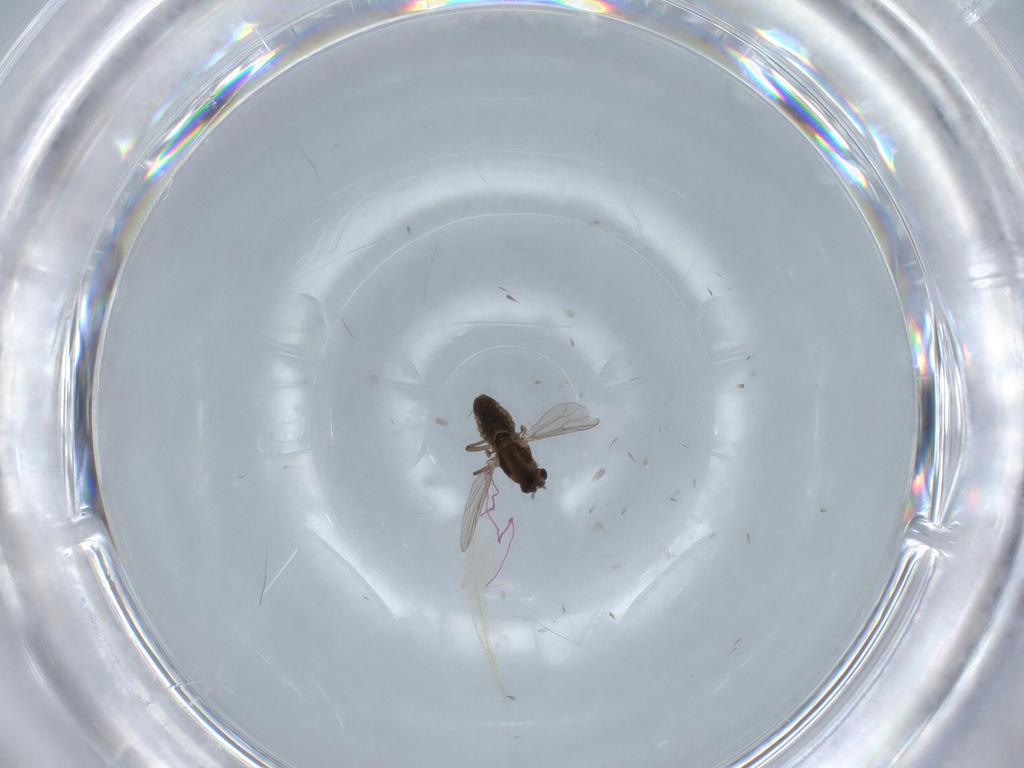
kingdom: Animalia
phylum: Arthropoda
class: Insecta
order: Diptera
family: Chironomidae
